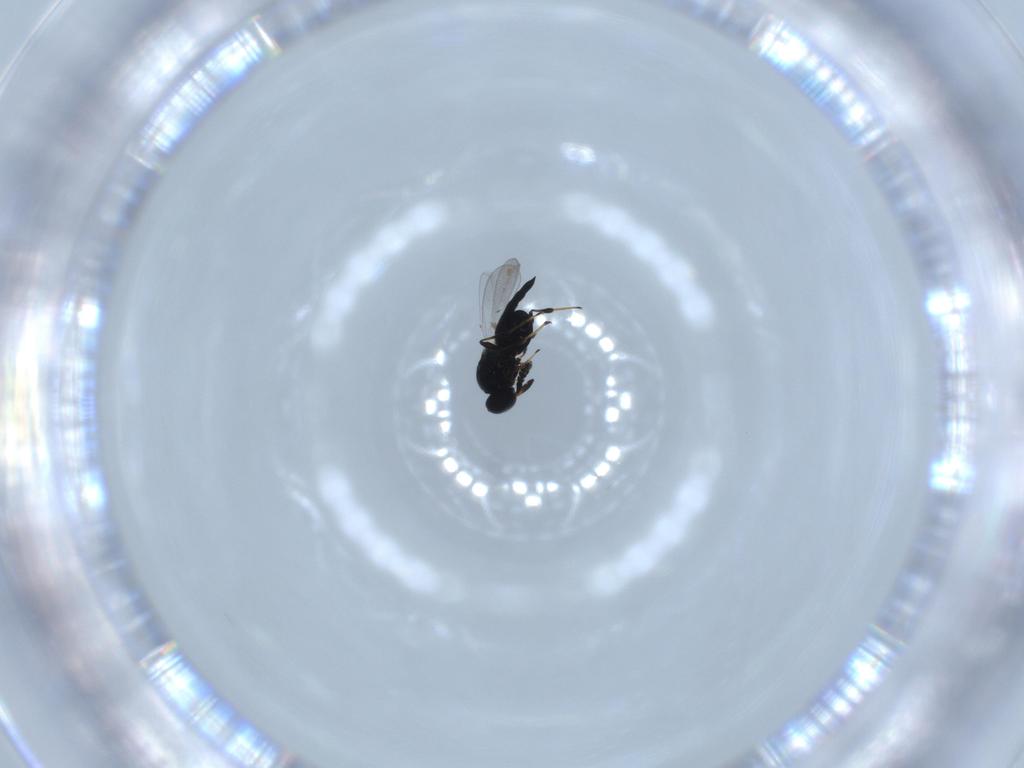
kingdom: Animalia
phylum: Arthropoda
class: Insecta
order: Hymenoptera
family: Platygastridae
